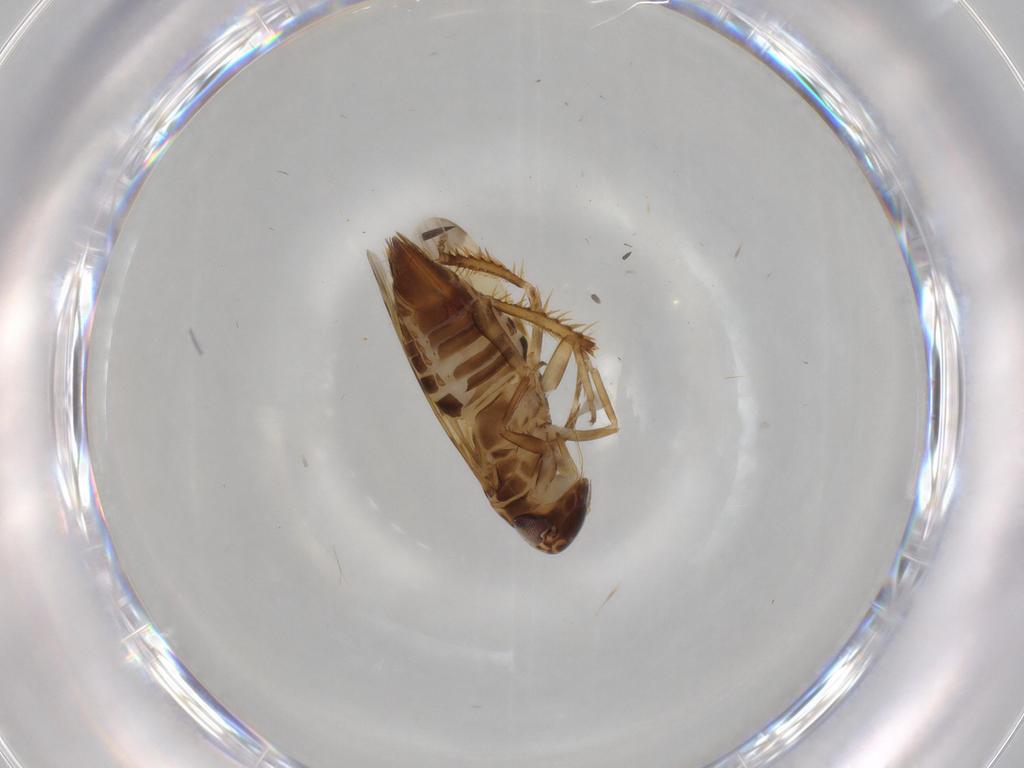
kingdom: Animalia
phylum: Arthropoda
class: Insecta
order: Hemiptera
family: Cicadellidae
